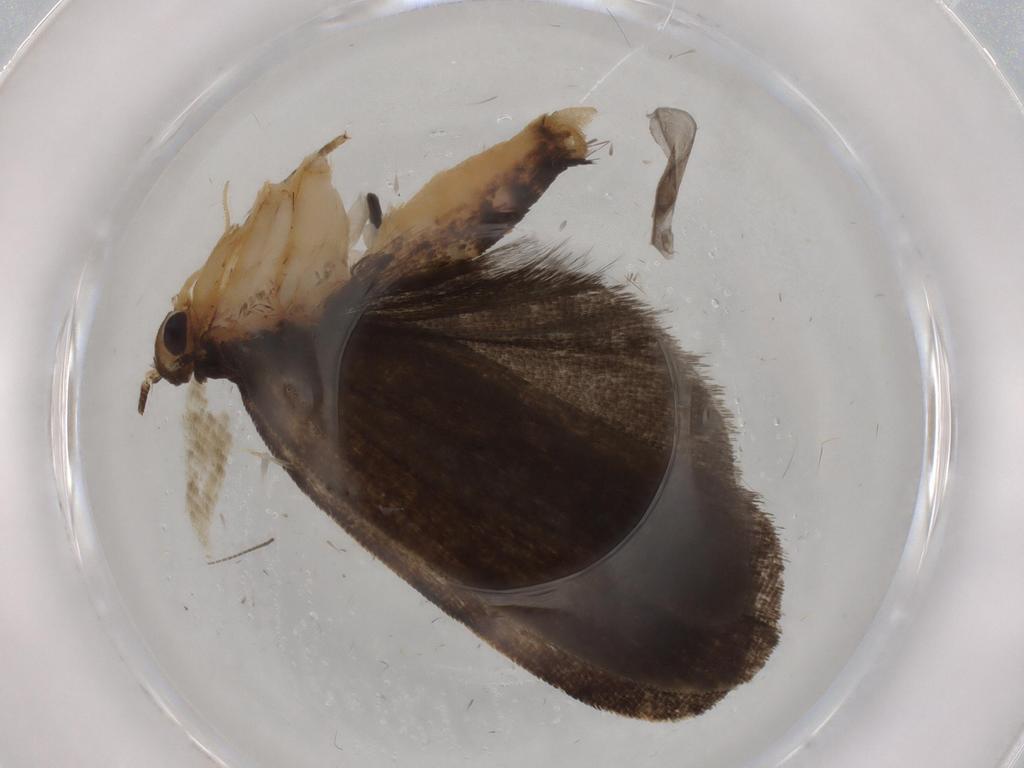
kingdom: Animalia
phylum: Arthropoda
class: Insecta
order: Lepidoptera
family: Depressariidae
